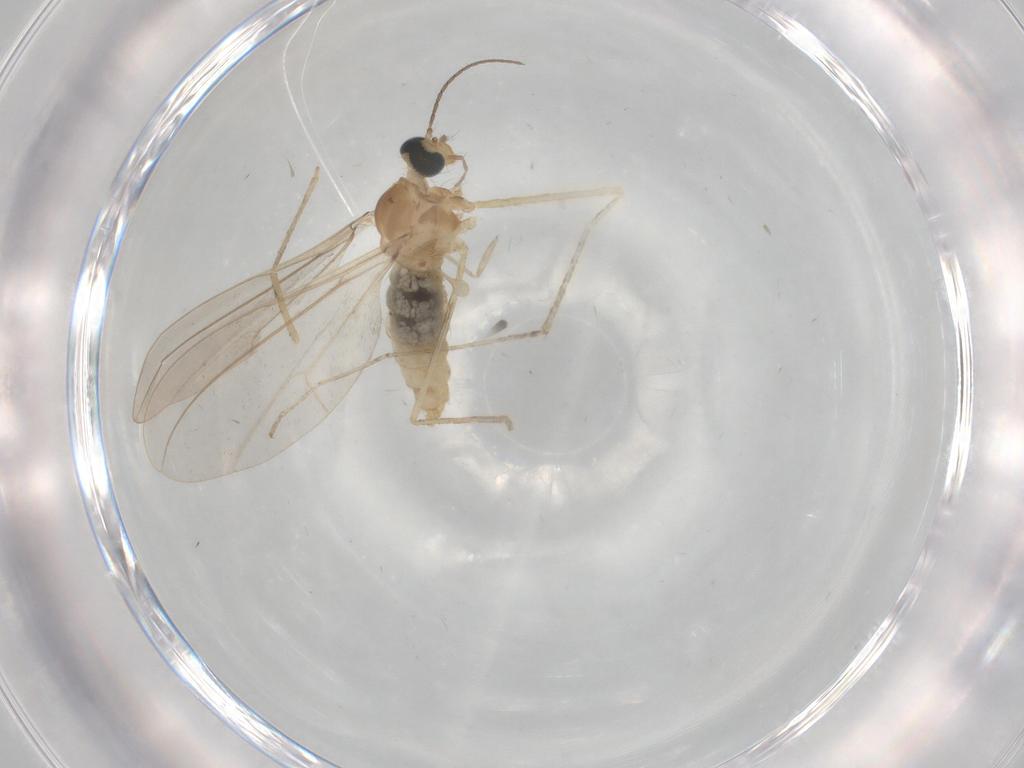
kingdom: Animalia
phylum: Arthropoda
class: Insecta
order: Diptera
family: Cecidomyiidae
